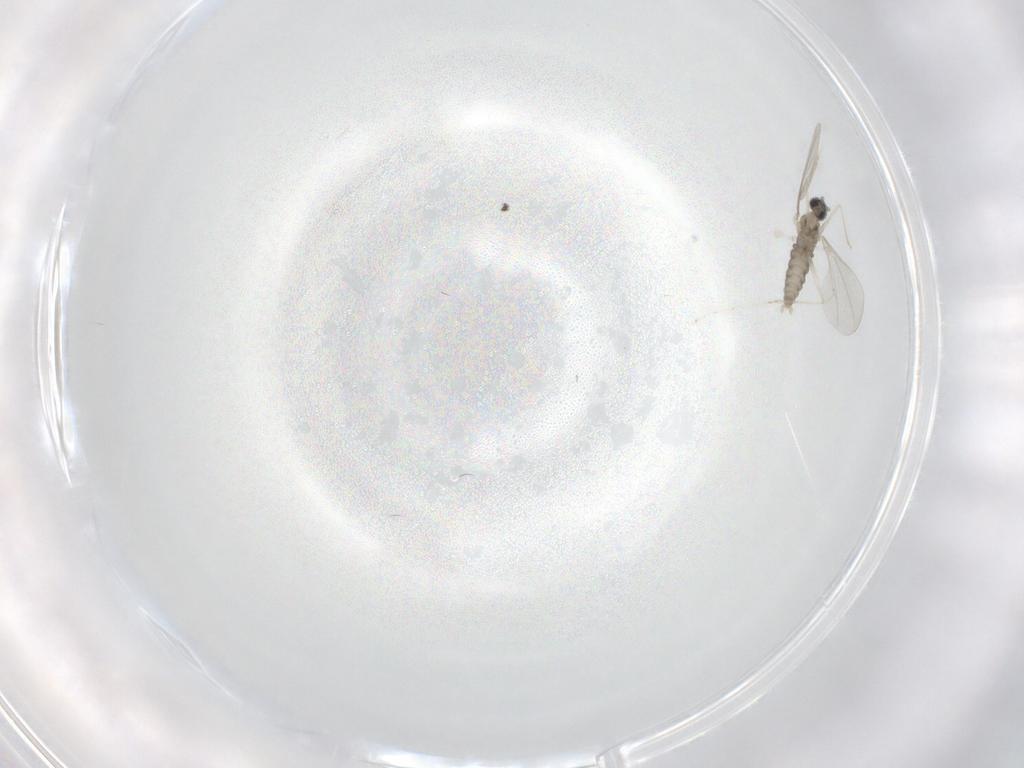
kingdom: Animalia
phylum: Arthropoda
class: Insecta
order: Diptera
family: Cecidomyiidae
